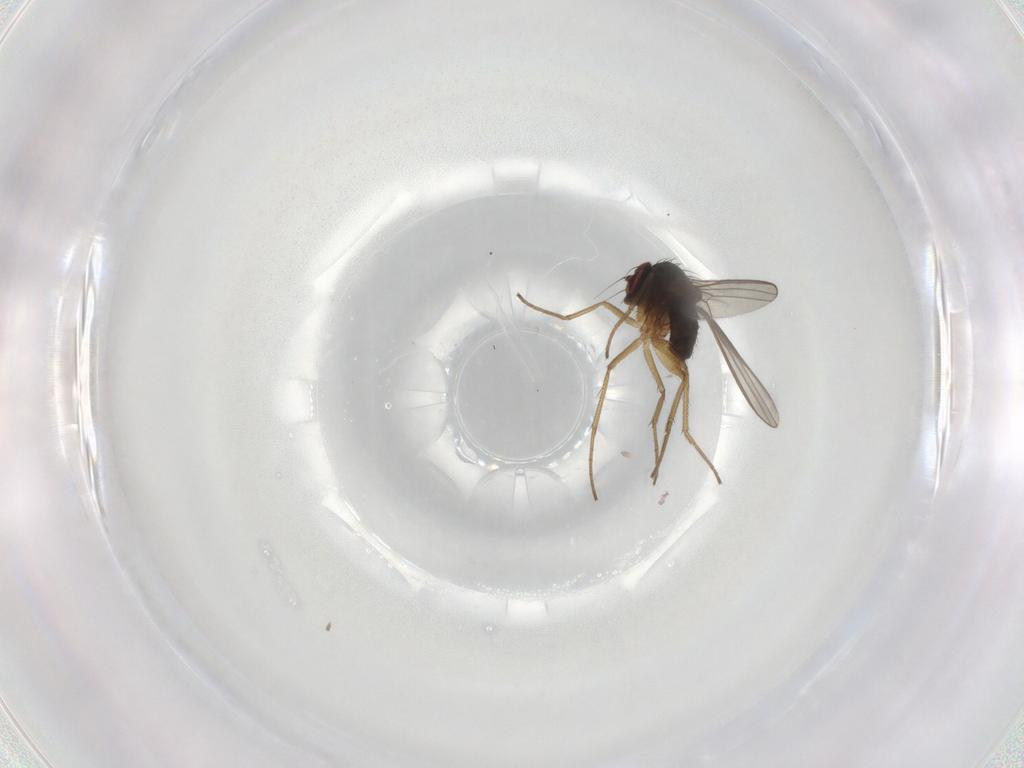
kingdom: Animalia
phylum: Arthropoda
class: Insecta
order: Diptera
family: Dolichopodidae
